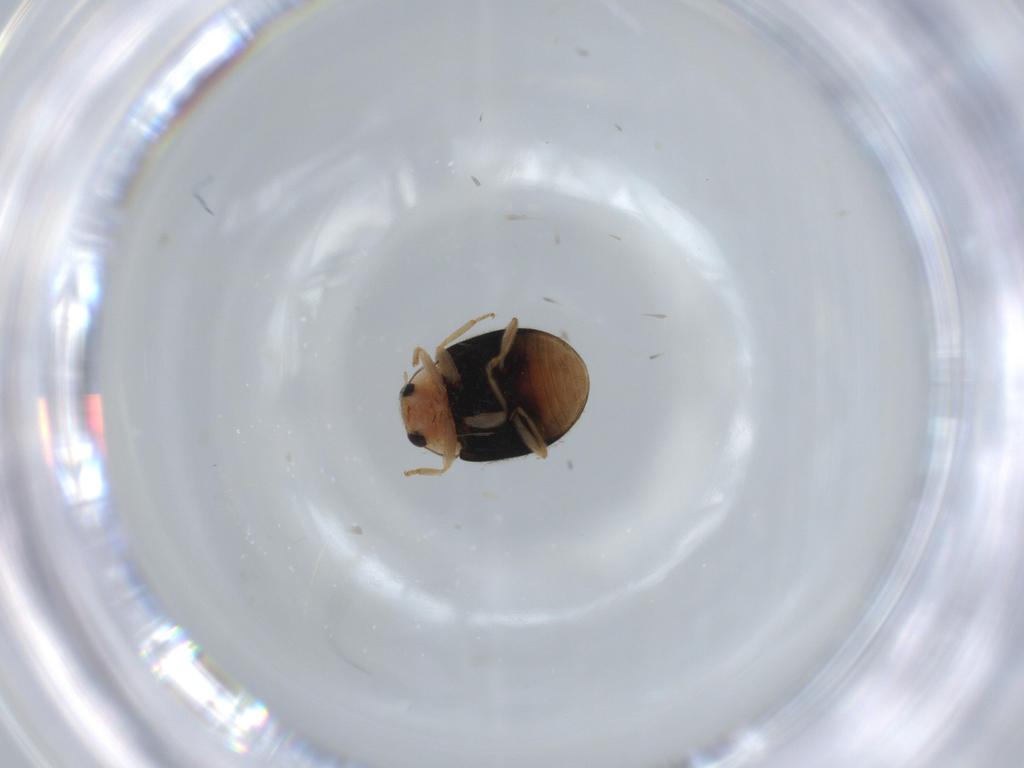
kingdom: Animalia
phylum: Arthropoda
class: Insecta
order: Coleoptera
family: Coccinellidae
